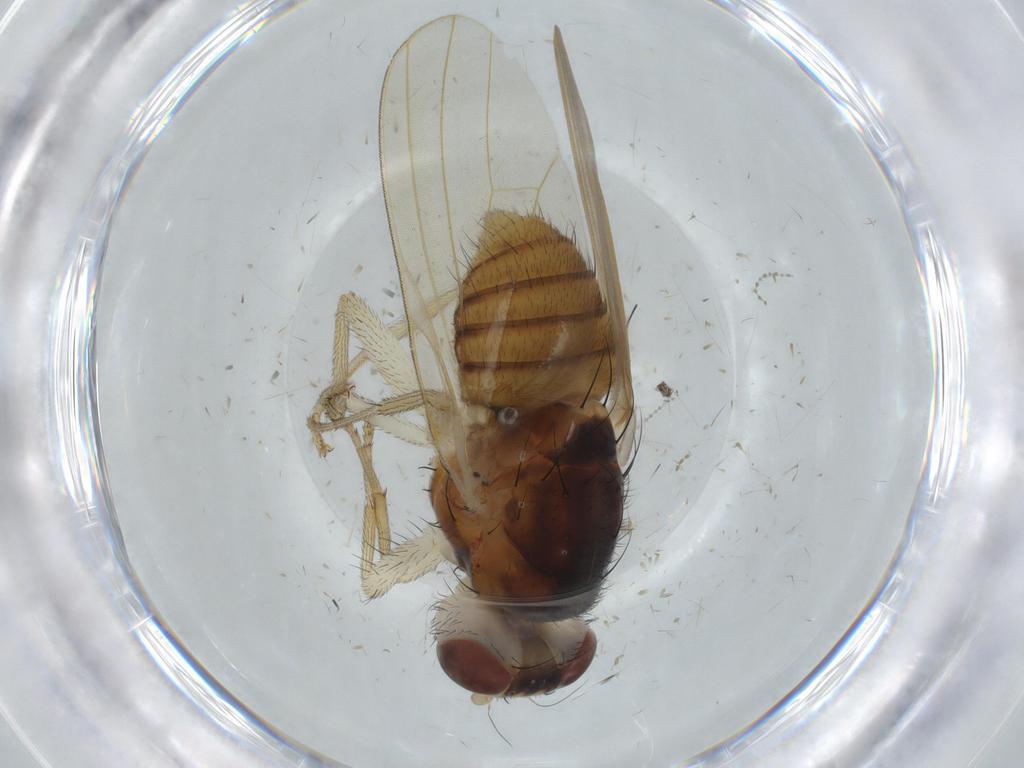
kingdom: Animalia
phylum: Arthropoda
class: Insecta
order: Diptera
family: Lauxaniidae
